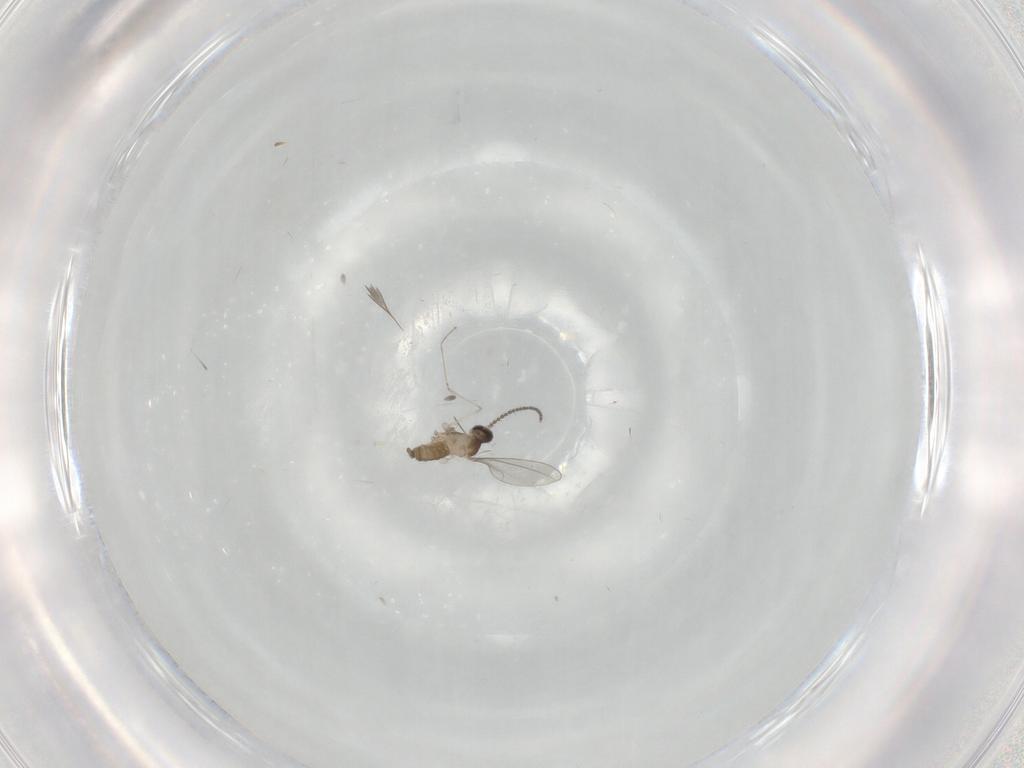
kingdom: Animalia
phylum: Arthropoda
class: Insecta
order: Diptera
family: Cecidomyiidae
